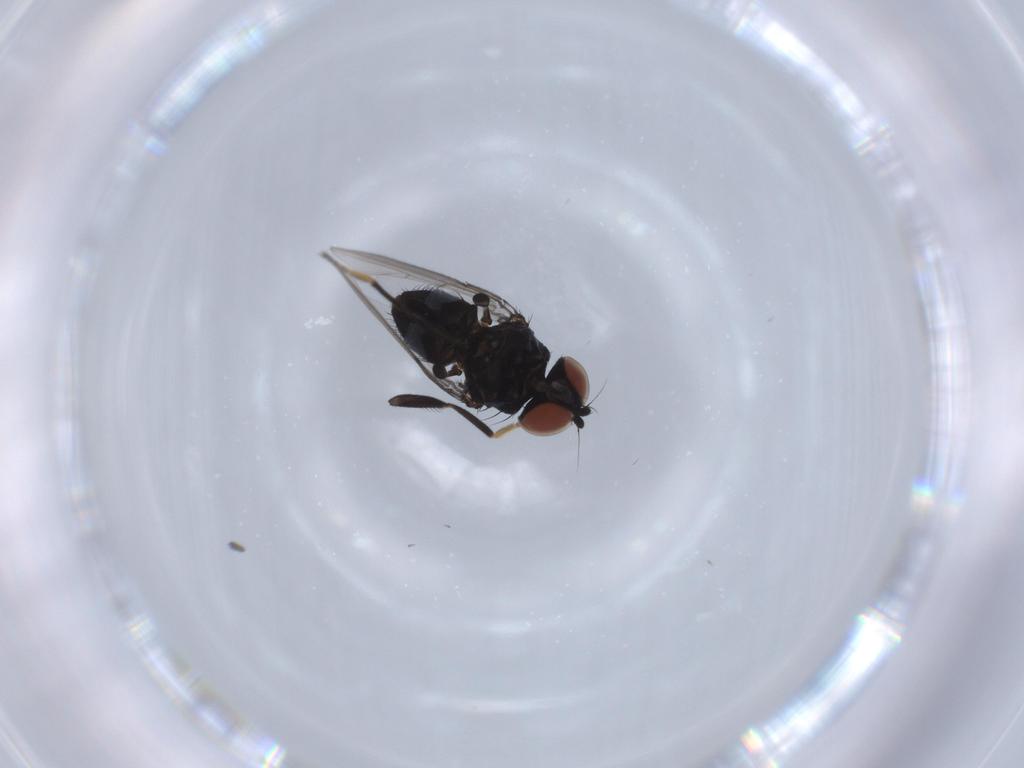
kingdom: Animalia
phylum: Arthropoda
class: Insecta
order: Diptera
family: Milichiidae
